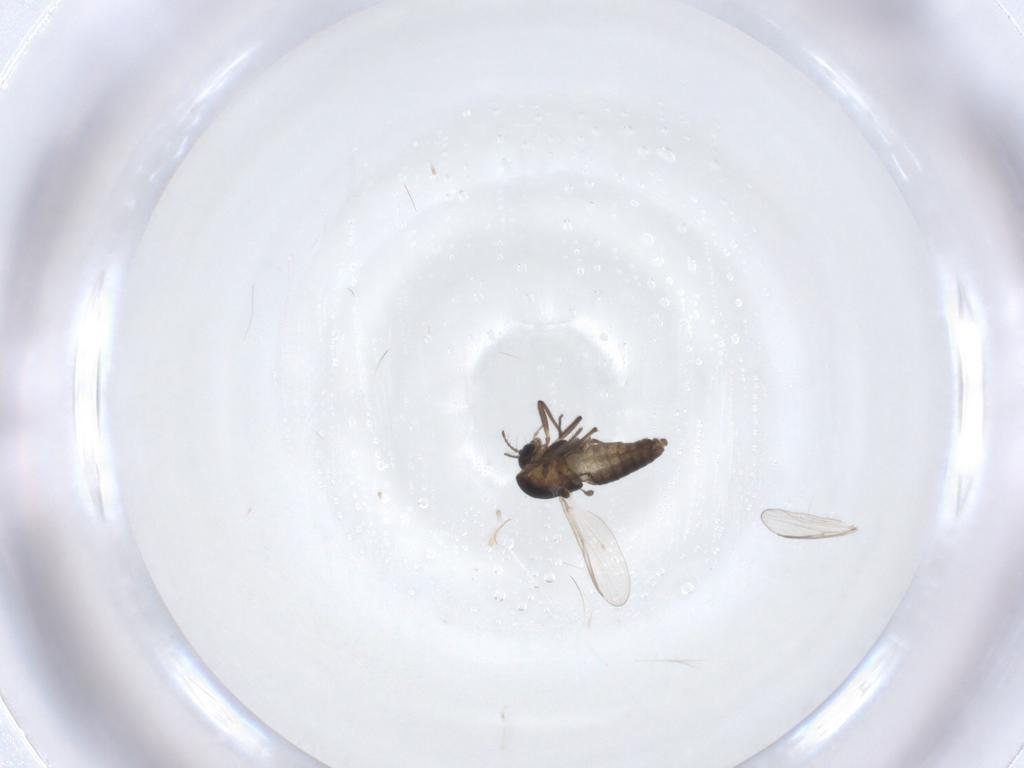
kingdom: Animalia
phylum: Arthropoda
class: Insecta
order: Diptera
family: Chironomidae
